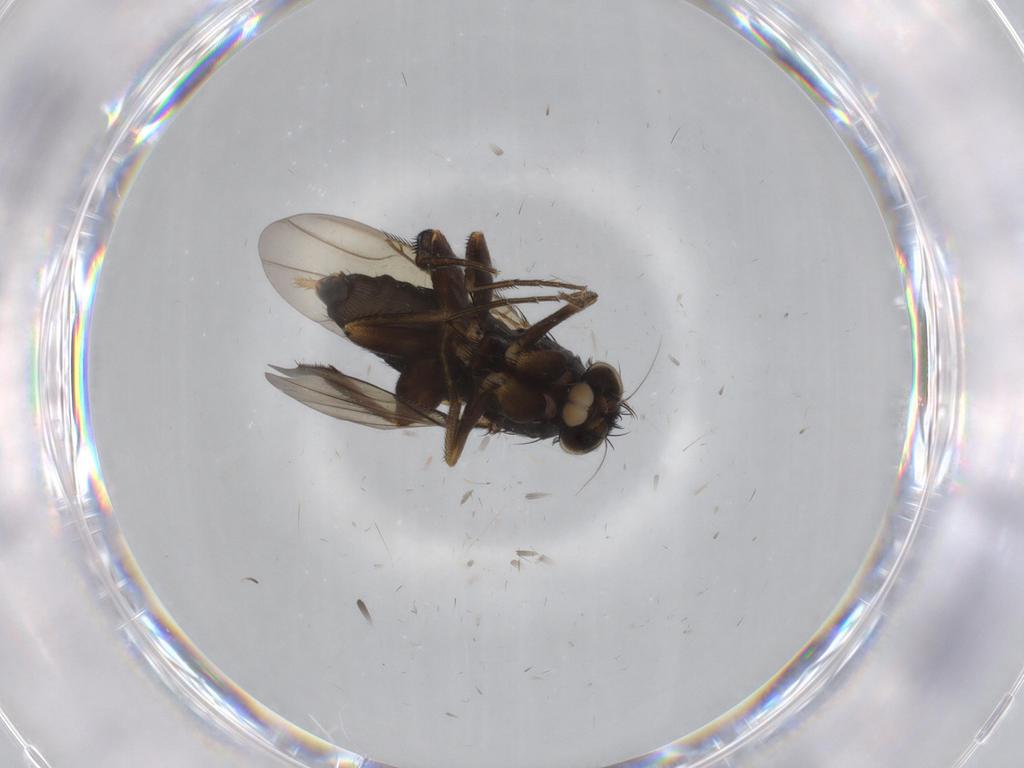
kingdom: Animalia
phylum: Arthropoda
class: Insecta
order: Diptera
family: Phoridae
